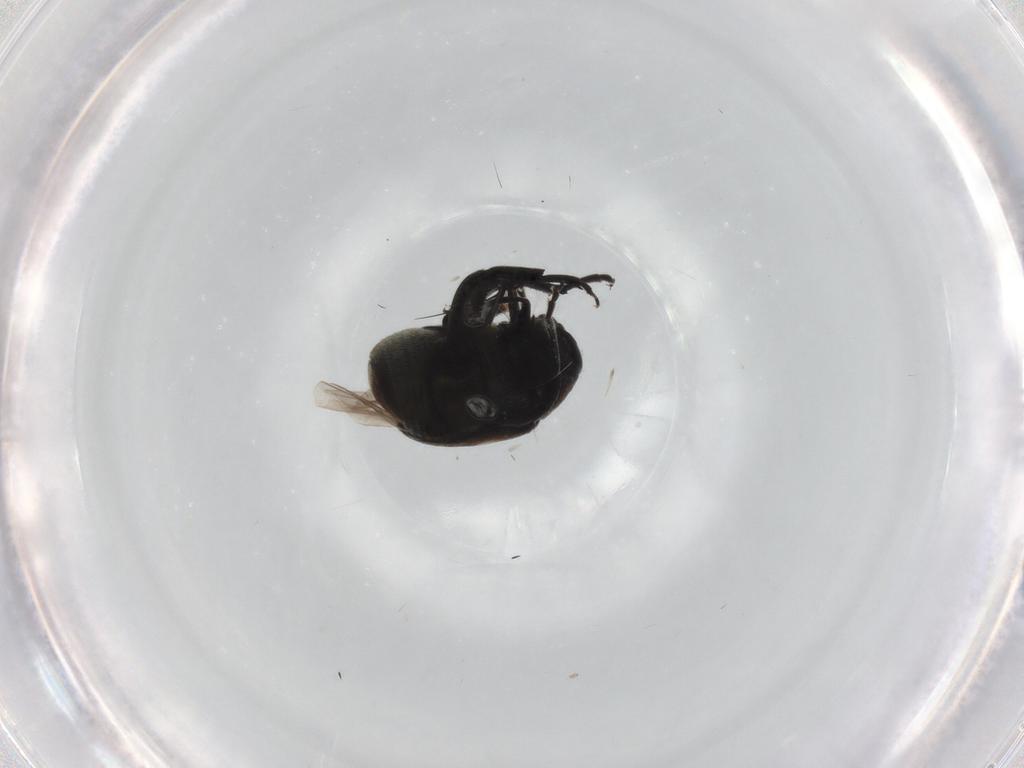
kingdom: Animalia
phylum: Arthropoda
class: Insecta
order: Coleoptera
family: Chrysomelidae
